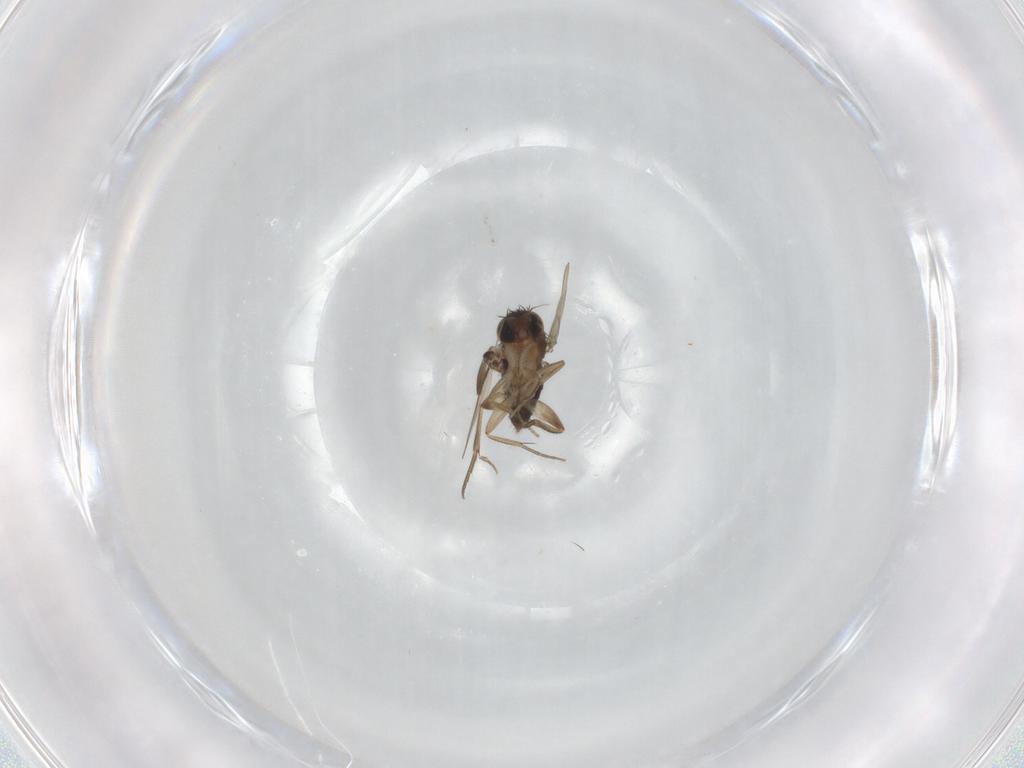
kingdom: Animalia
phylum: Arthropoda
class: Insecta
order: Diptera
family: Phoridae
